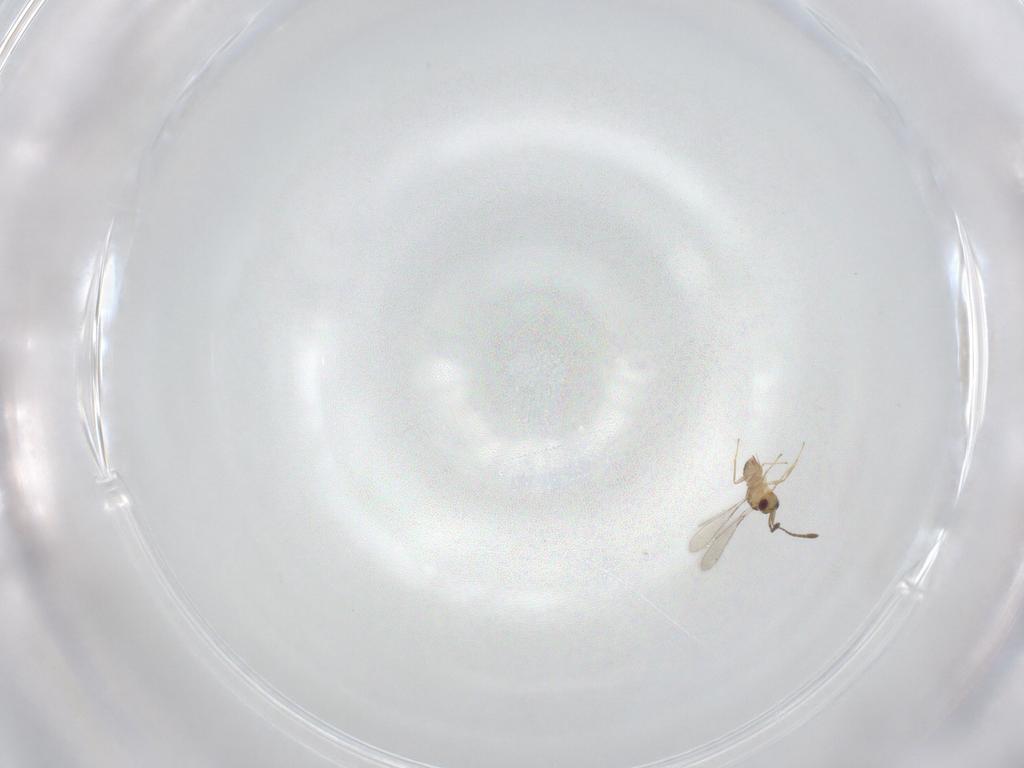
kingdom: Animalia
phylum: Arthropoda
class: Insecta
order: Hymenoptera
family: Mymaridae
